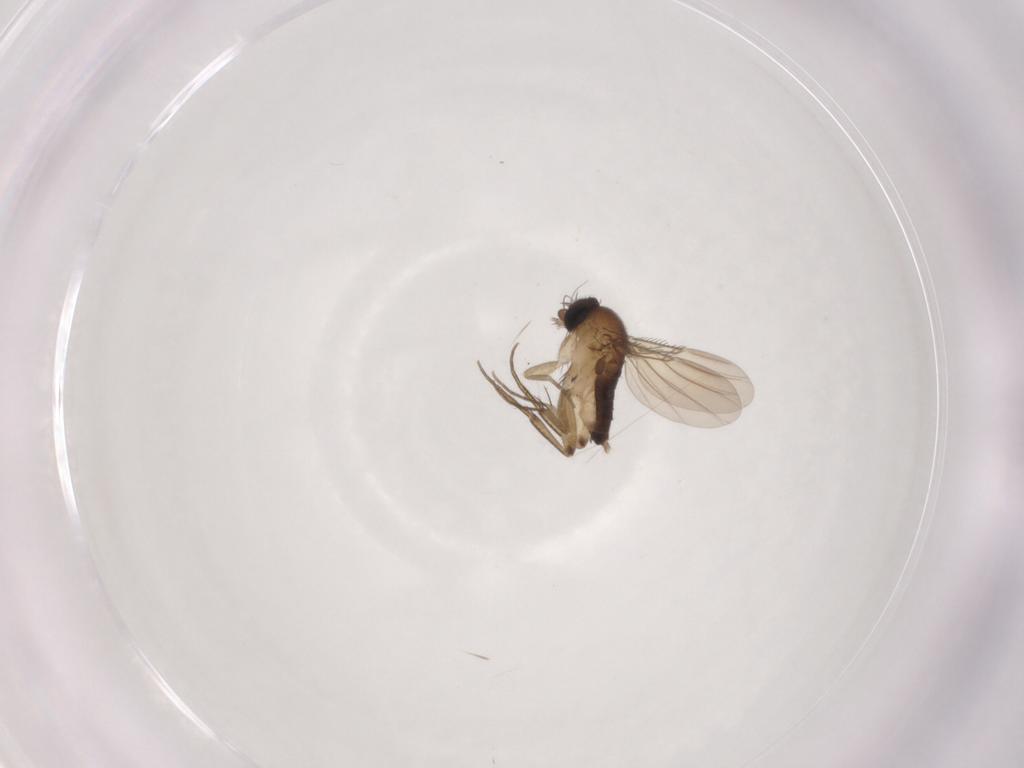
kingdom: Animalia
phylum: Arthropoda
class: Insecta
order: Diptera
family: Phoridae
